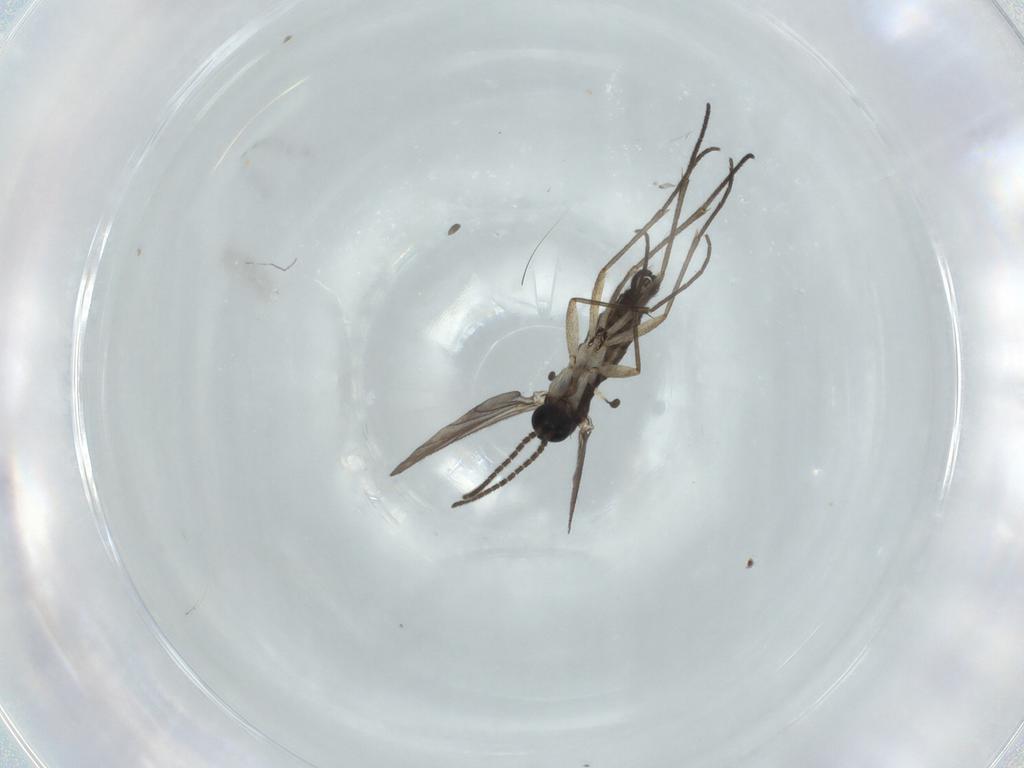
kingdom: Animalia
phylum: Arthropoda
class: Insecta
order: Diptera
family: Sciaridae
